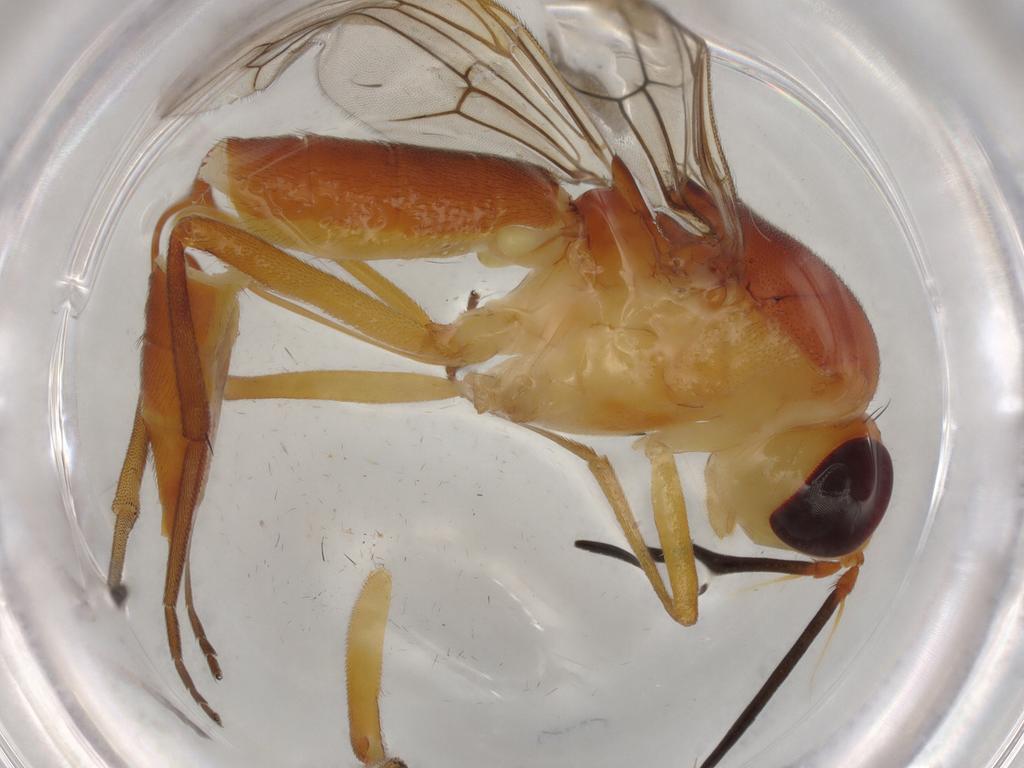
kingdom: Animalia
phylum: Arthropoda
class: Insecta
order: Diptera
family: Psilidae
